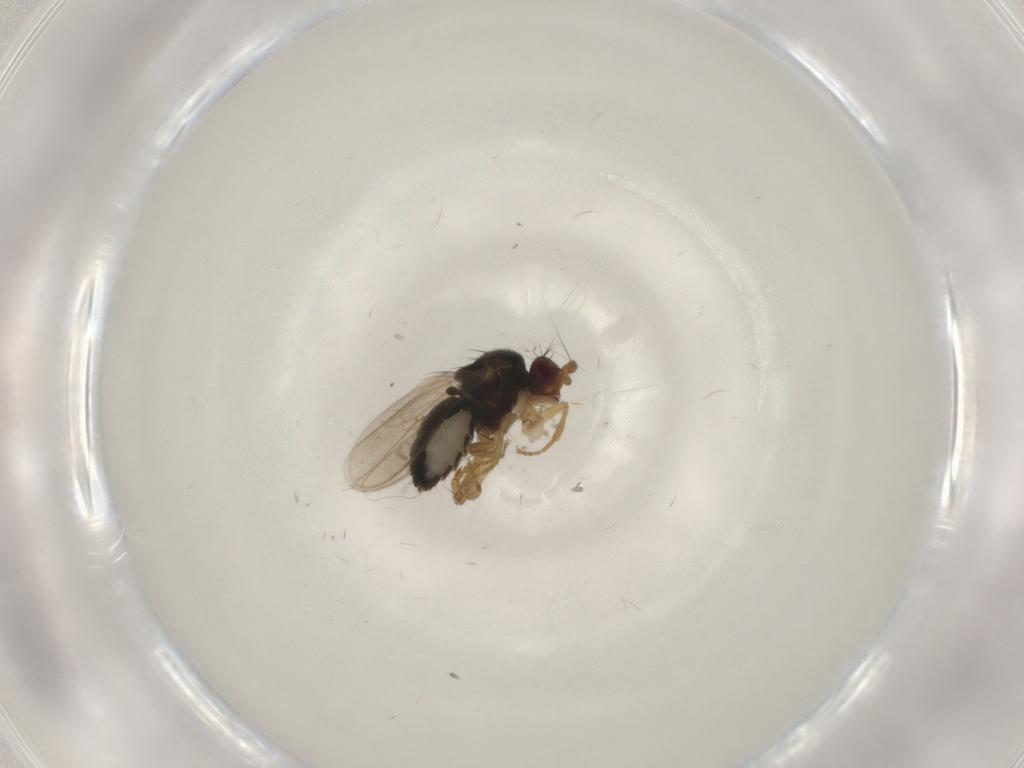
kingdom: Animalia
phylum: Arthropoda
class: Insecta
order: Diptera
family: Sphaeroceridae
